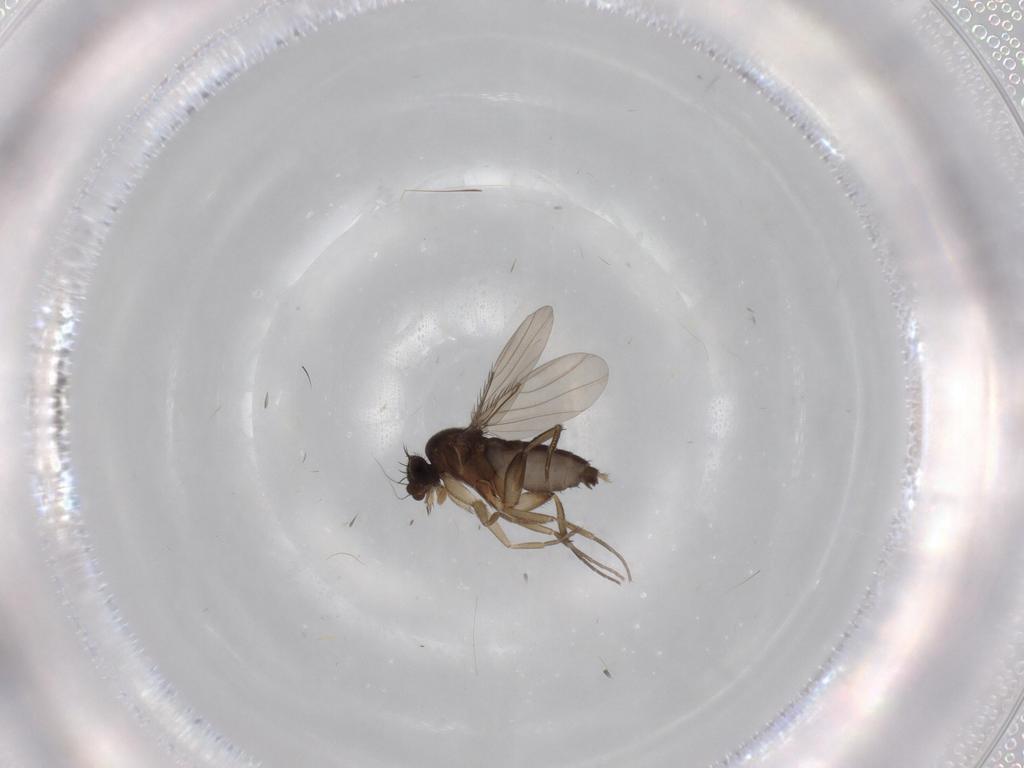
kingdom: Animalia
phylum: Arthropoda
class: Insecta
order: Diptera
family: Phoridae
